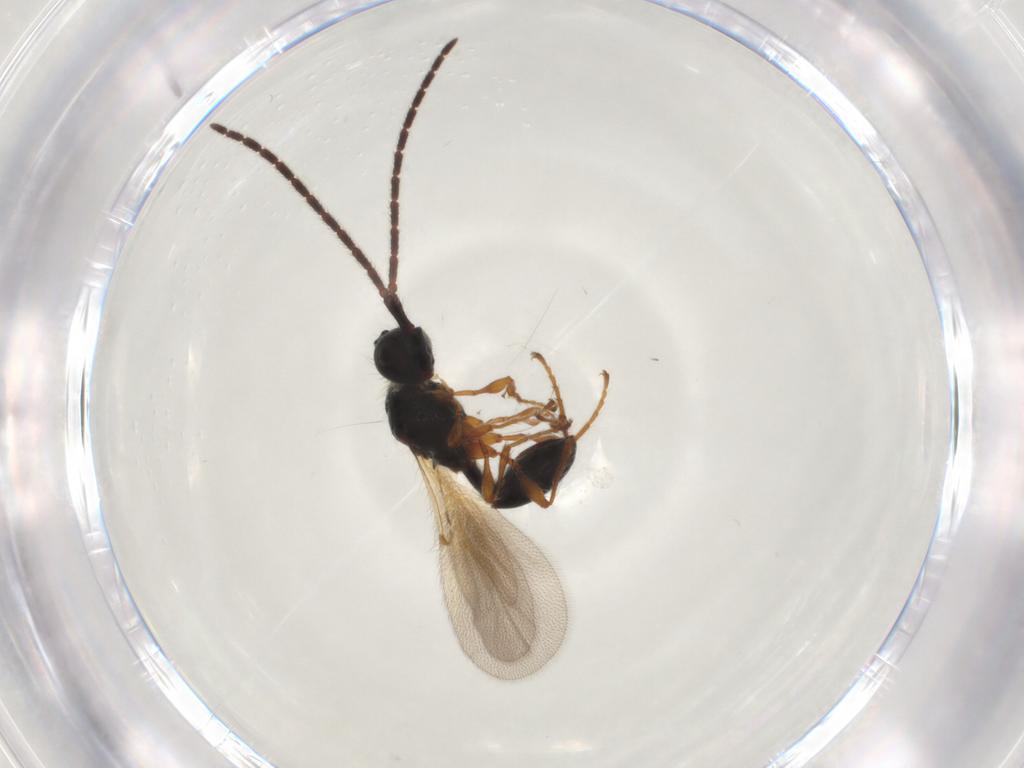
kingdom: Animalia
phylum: Arthropoda
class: Insecta
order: Hymenoptera
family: Diapriidae
